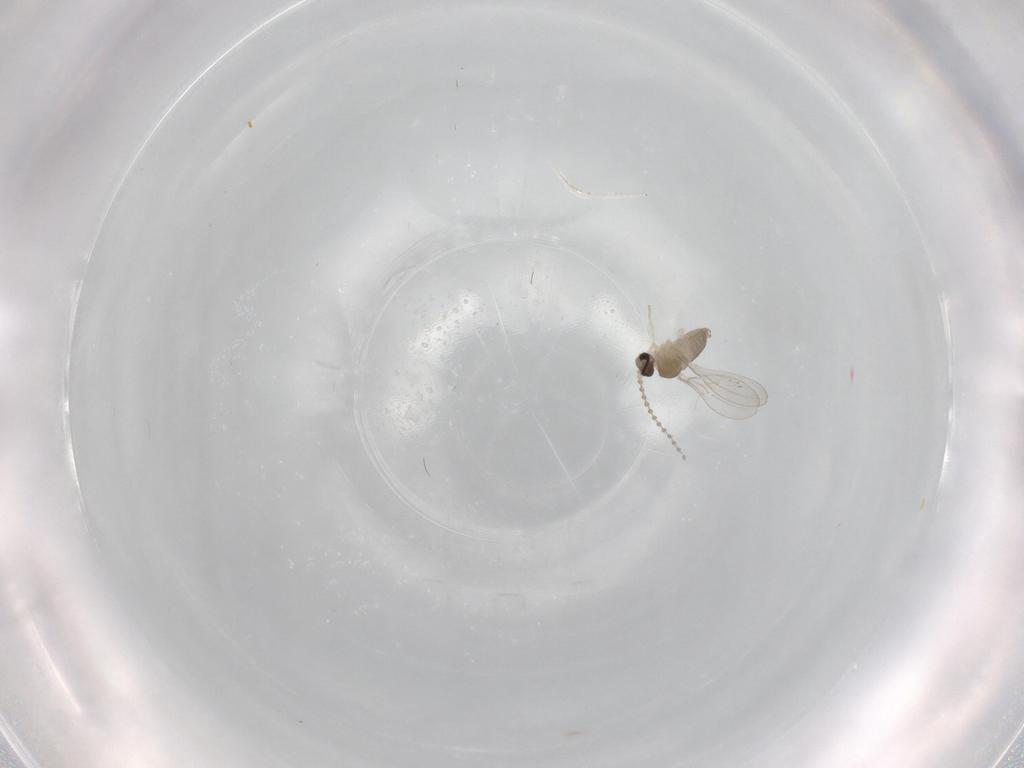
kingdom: Animalia
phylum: Arthropoda
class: Insecta
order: Diptera
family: Cecidomyiidae
